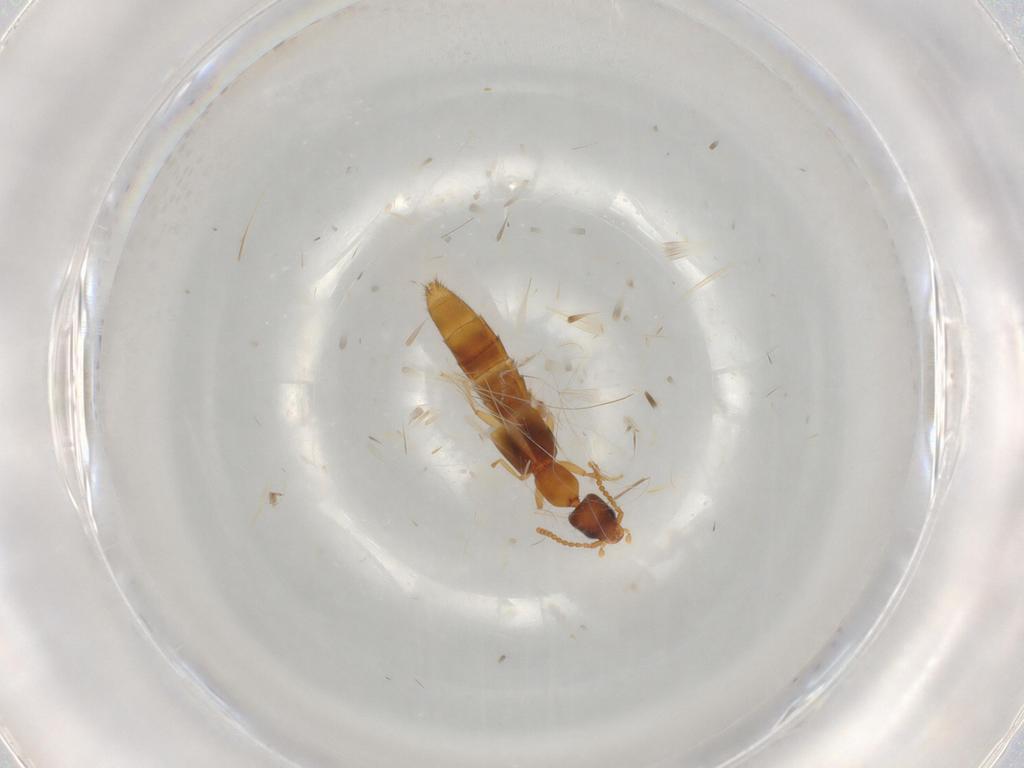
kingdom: Animalia
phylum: Arthropoda
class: Insecta
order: Coleoptera
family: Staphylinidae
